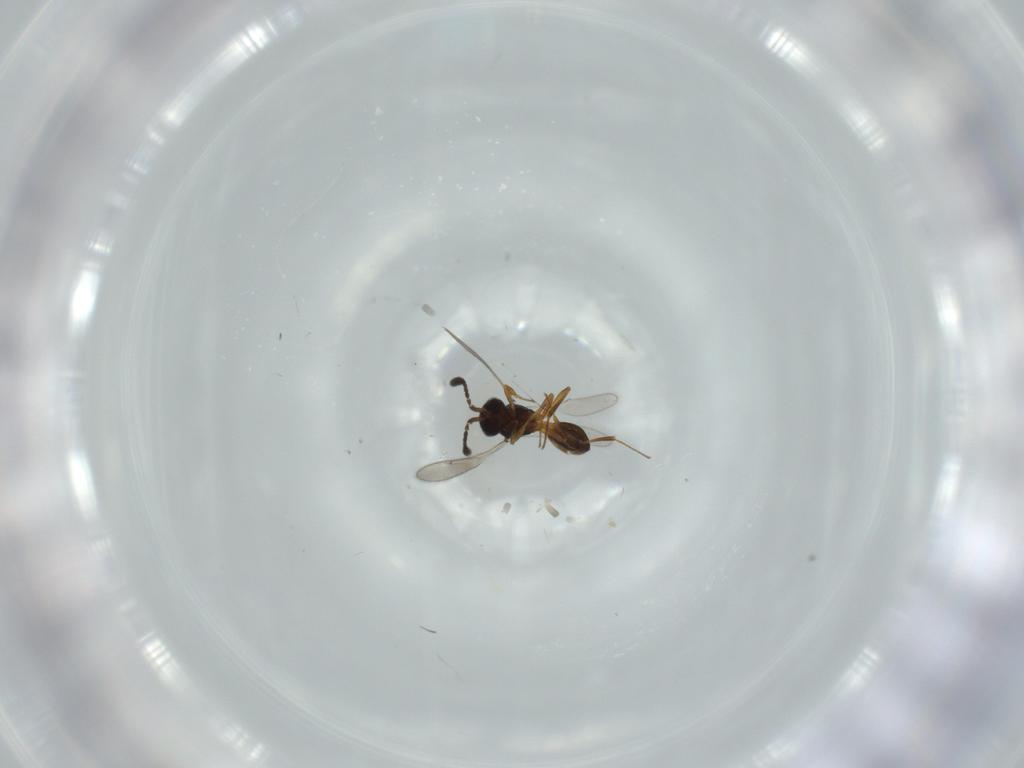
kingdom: Animalia
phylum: Arthropoda
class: Insecta
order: Hymenoptera
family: Scelionidae
